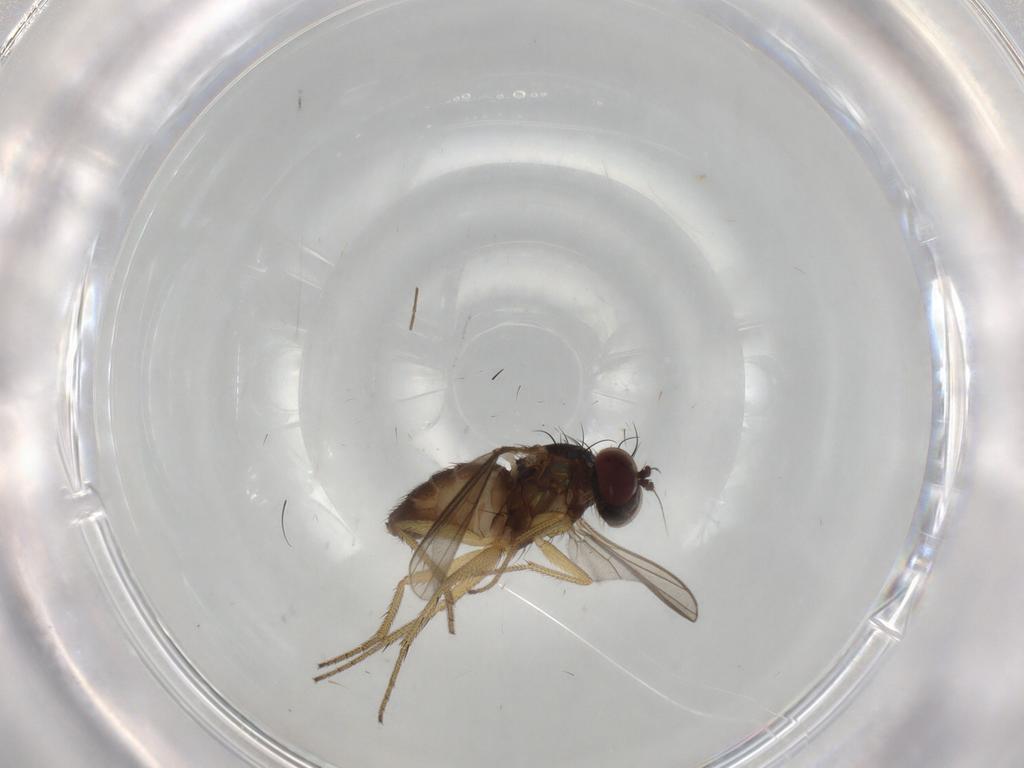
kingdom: Animalia
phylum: Arthropoda
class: Insecta
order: Diptera
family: Dolichopodidae
